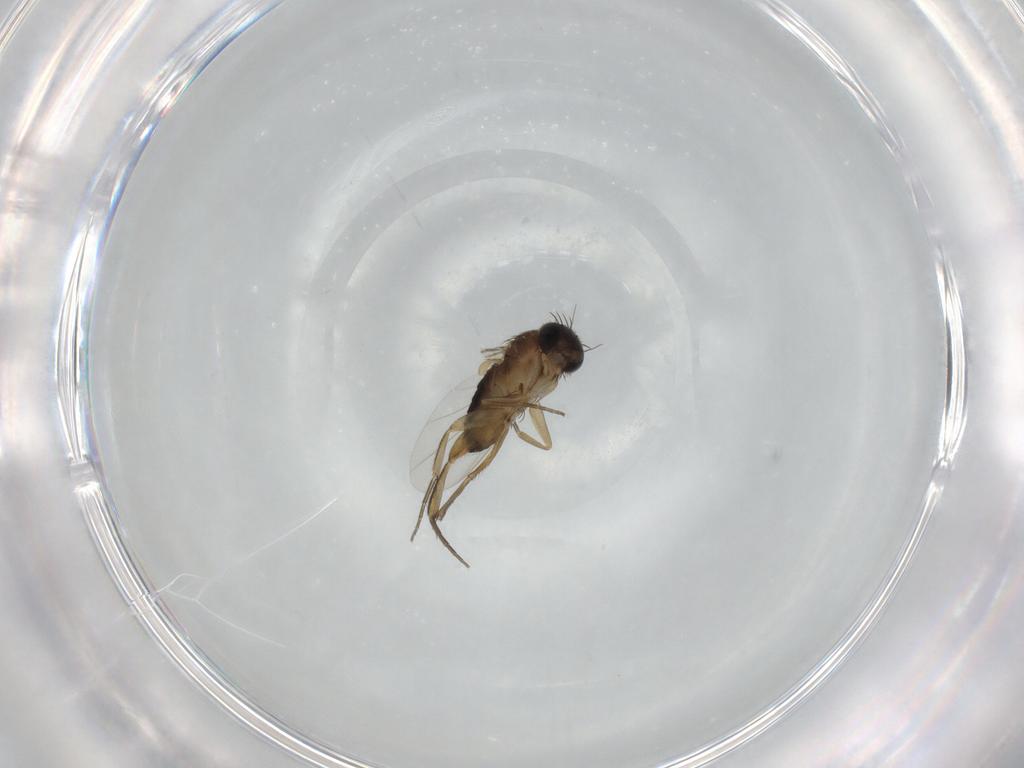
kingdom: Animalia
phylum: Arthropoda
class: Insecta
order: Diptera
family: Phoridae
